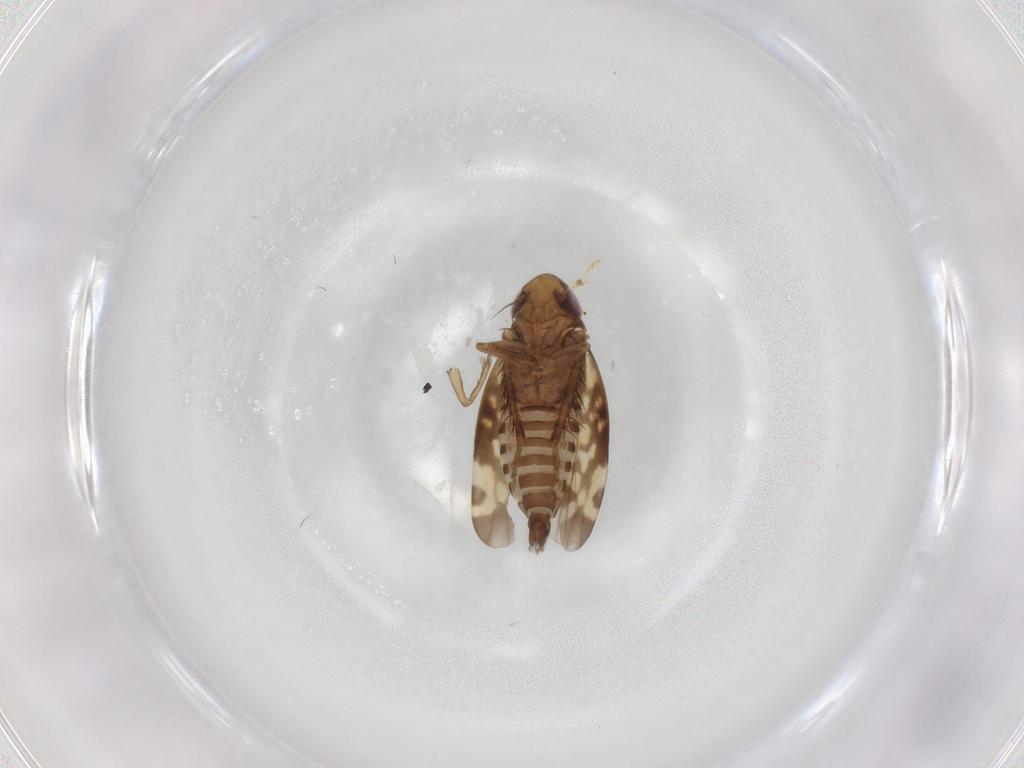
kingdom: Animalia
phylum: Arthropoda
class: Insecta
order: Hemiptera
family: Cicadellidae
